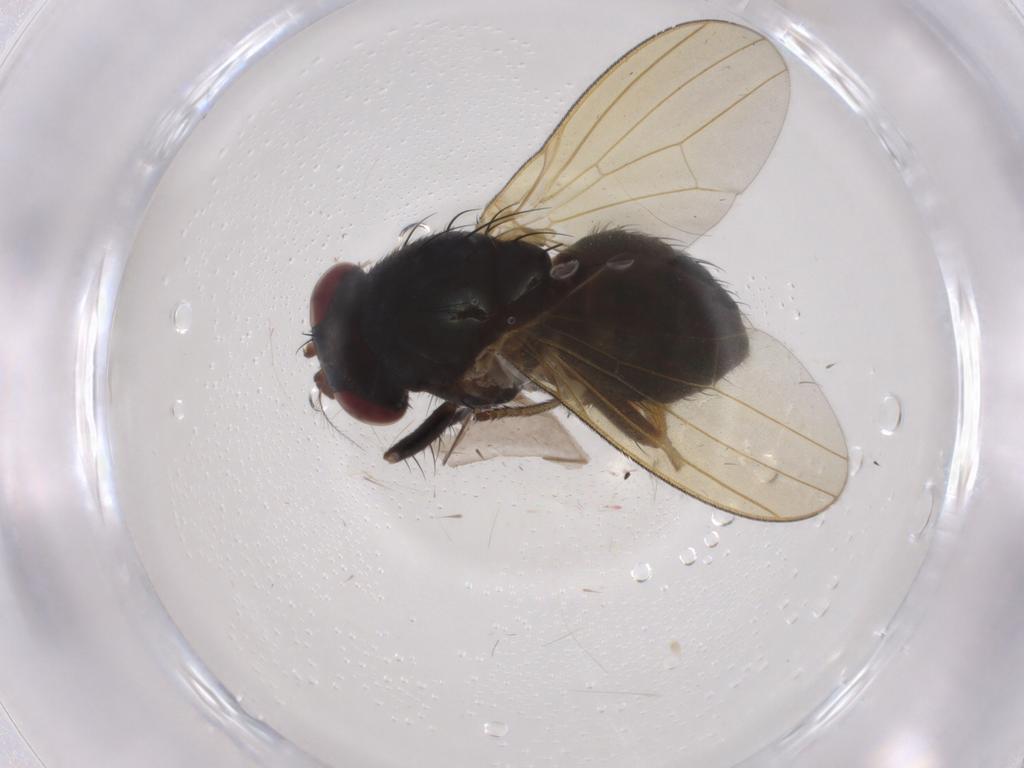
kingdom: Animalia
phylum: Arthropoda
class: Insecta
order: Diptera
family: Lauxaniidae
